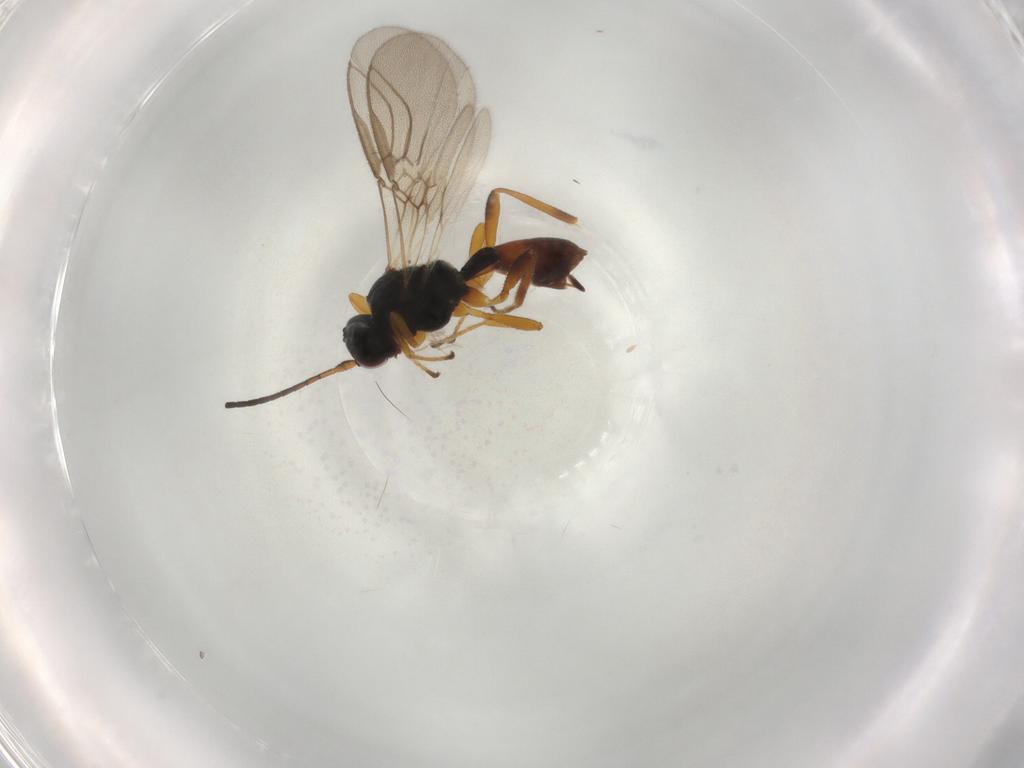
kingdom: Animalia
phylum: Arthropoda
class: Insecta
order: Hymenoptera
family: Braconidae
